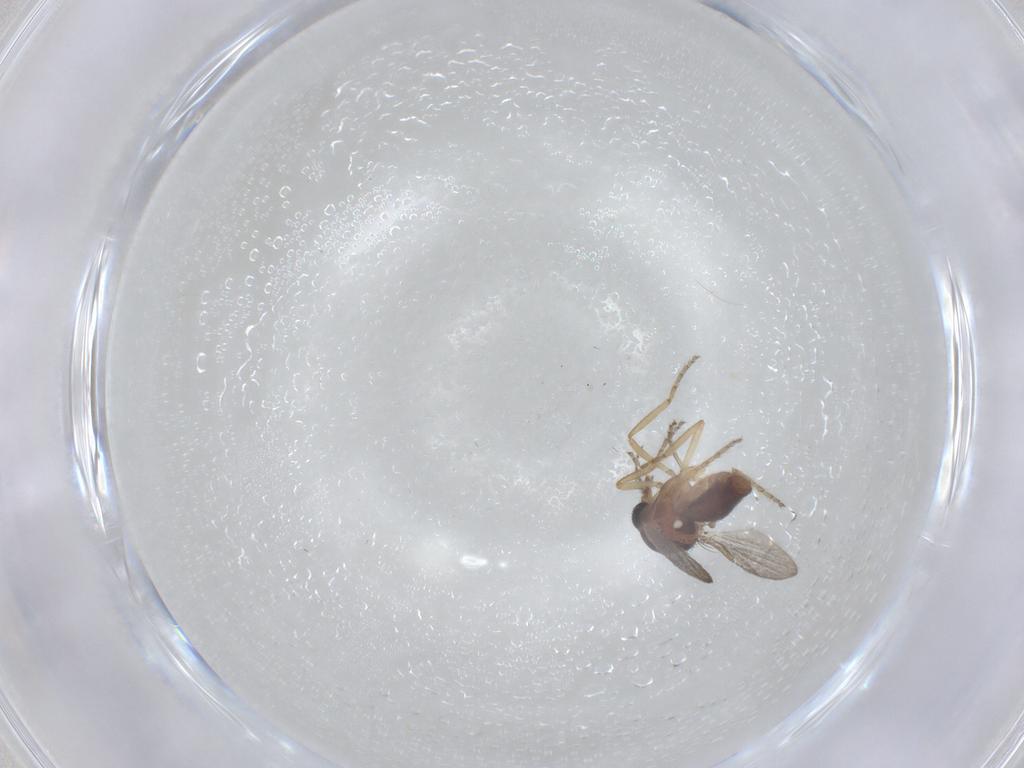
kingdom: Animalia
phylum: Arthropoda
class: Insecta
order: Diptera
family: Ceratopogonidae
